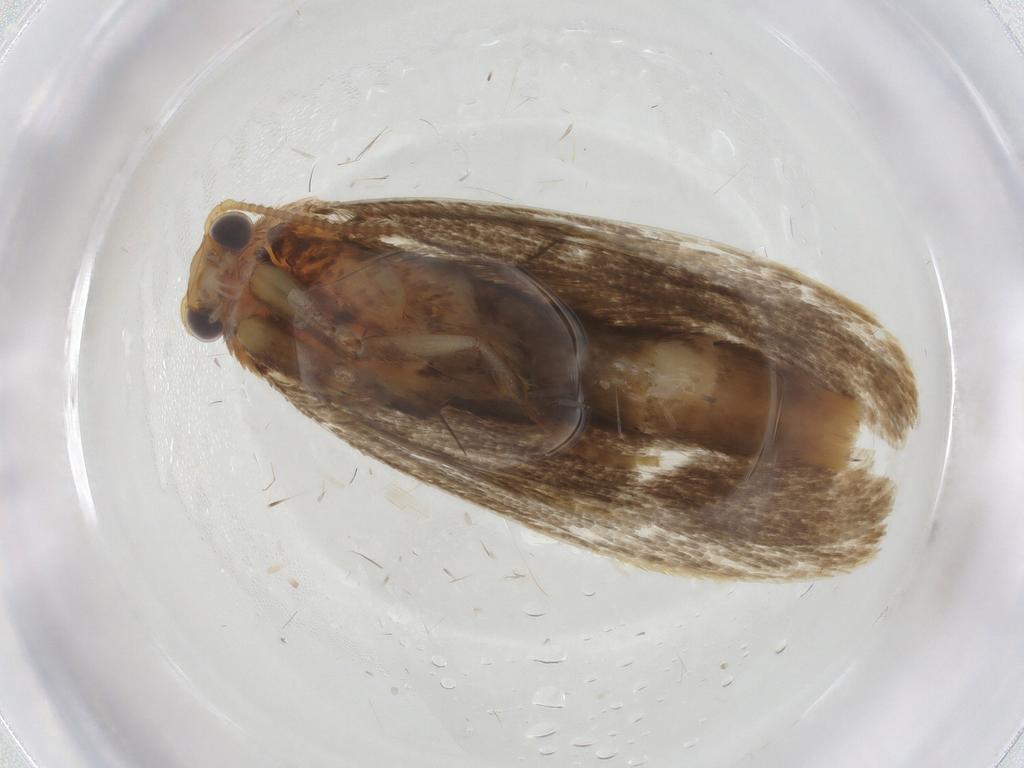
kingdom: Animalia
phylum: Arthropoda
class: Insecta
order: Lepidoptera
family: Tineidae
